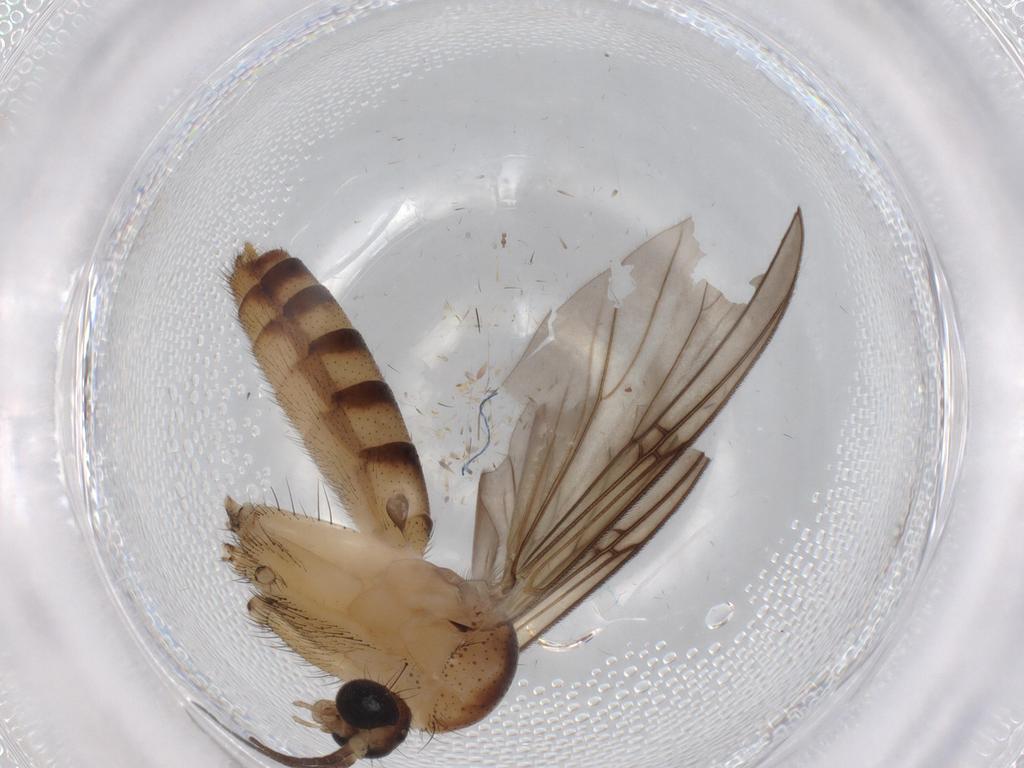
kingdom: Animalia
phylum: Arthropoda
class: Insecta
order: Diptera
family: Mycetophilidae
